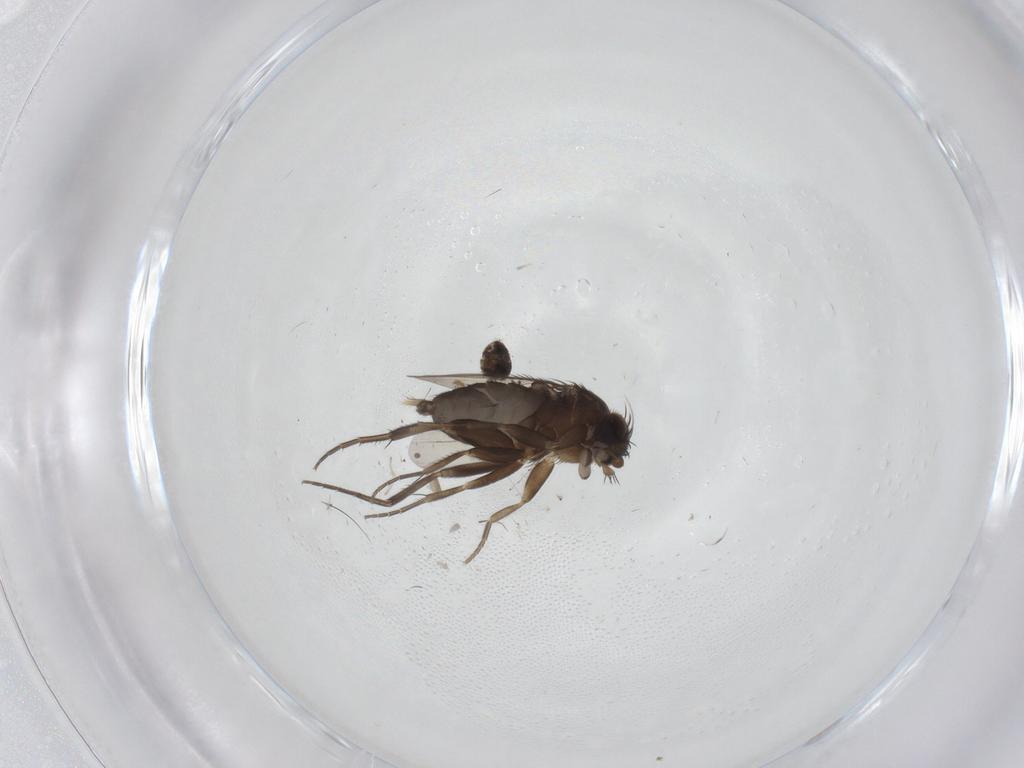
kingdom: Animalia
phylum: Arthropoda
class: Insecta
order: Diptera
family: Phoridae
